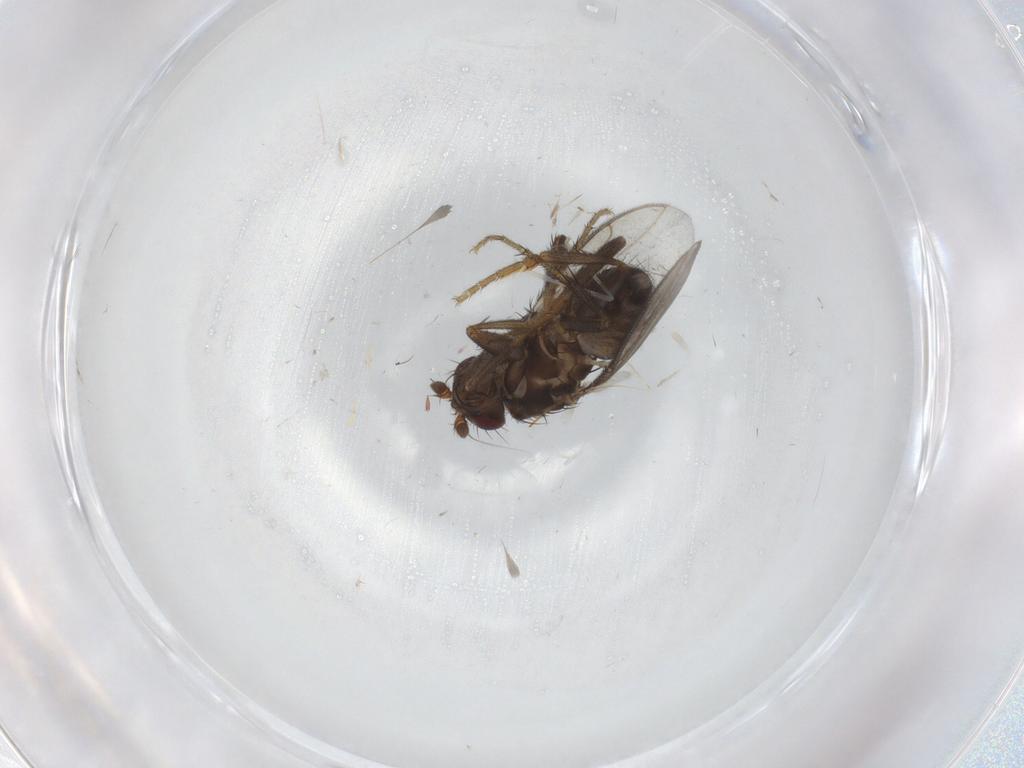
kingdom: Animalia
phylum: Arthropoda
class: Insecta
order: Diptera
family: Sphaeroceridae
